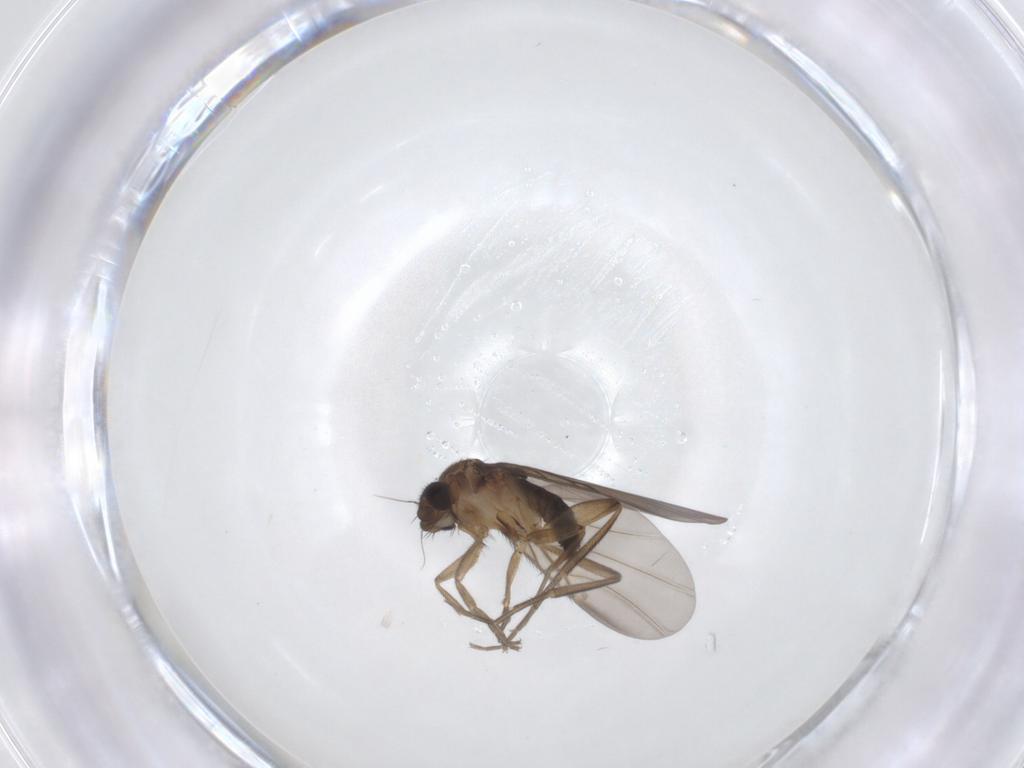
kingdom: Animalia
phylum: Arthropoda
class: Insecta
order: Diptera
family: Phoridae
